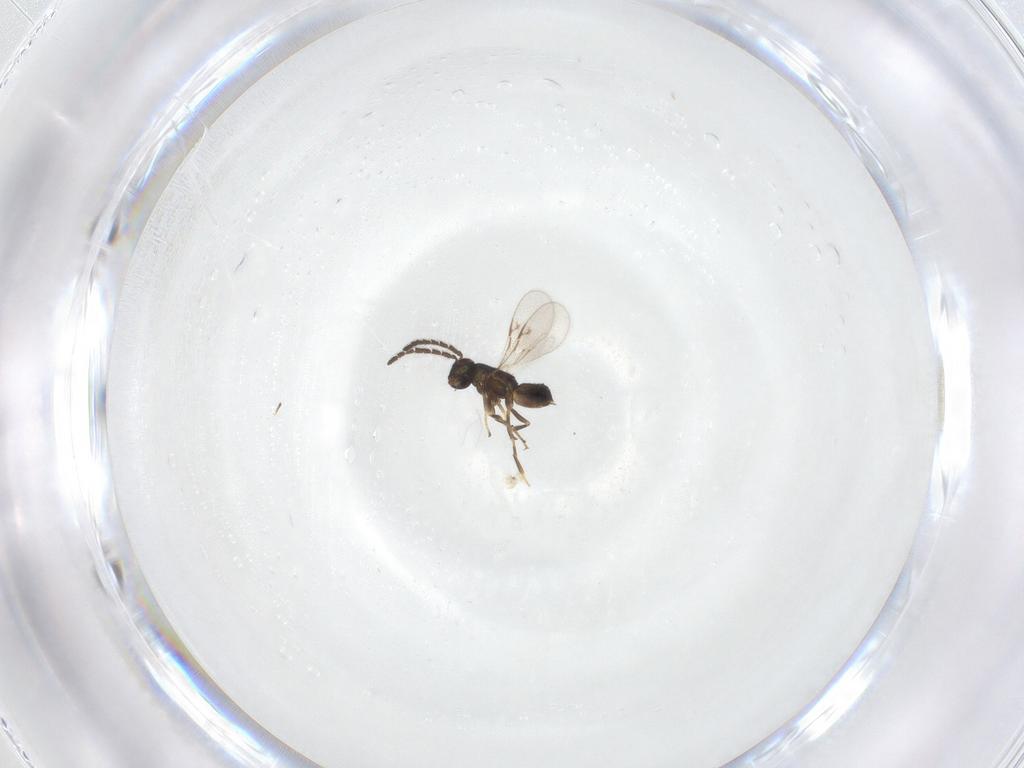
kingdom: Animalia
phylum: Arthropoda
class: Insecta
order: Hymenoptera
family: Encyrtidae
